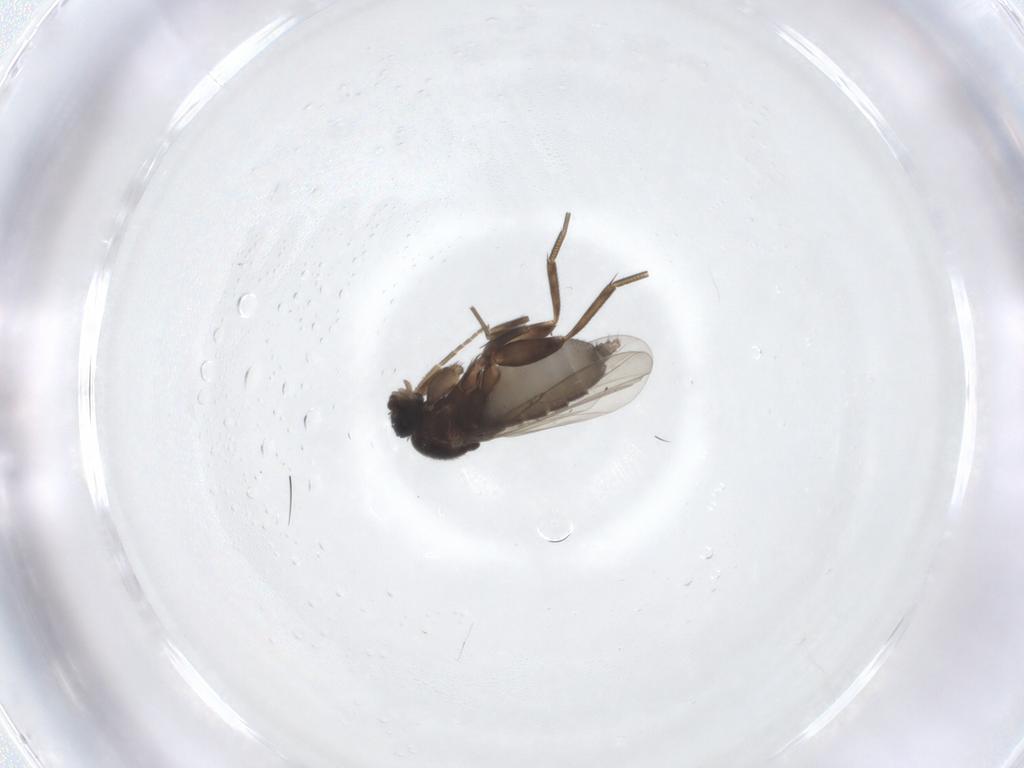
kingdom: Animalia
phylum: Arthropoda
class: Insecta
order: Diptera
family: Phoridae
